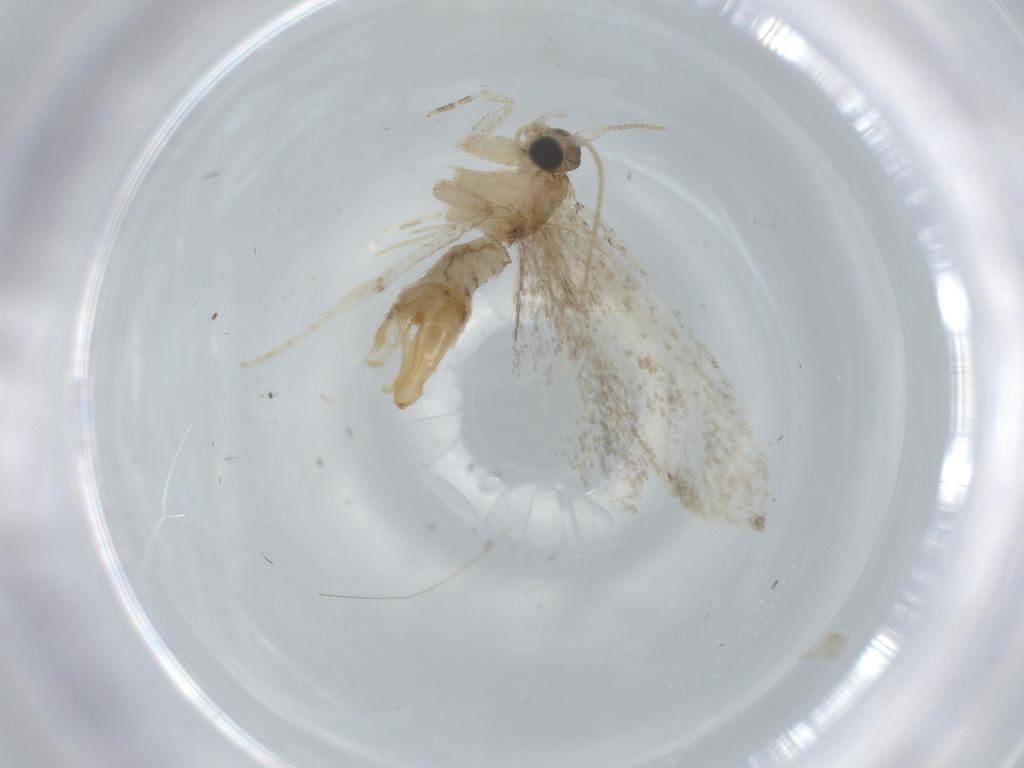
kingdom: Animalia
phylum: Arthropoda
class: Insecta
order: Lepidoptera
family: Tineidae
